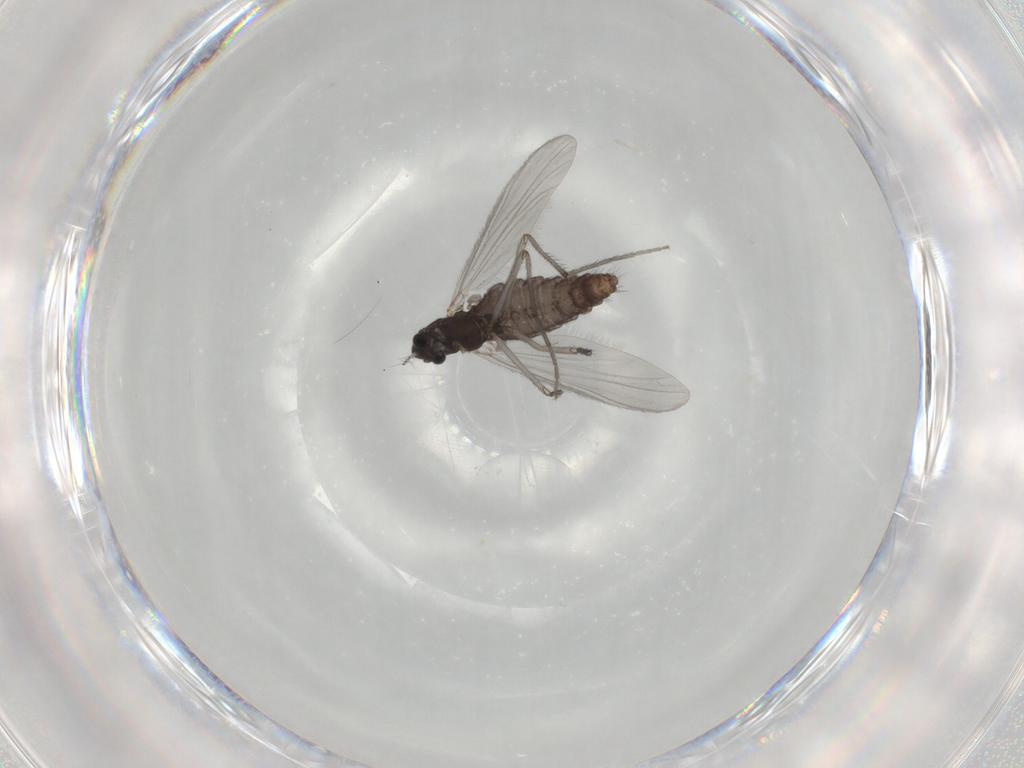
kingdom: Animalia
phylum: Arthropoda
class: Insecta
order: Diptera
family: Chironomidae
